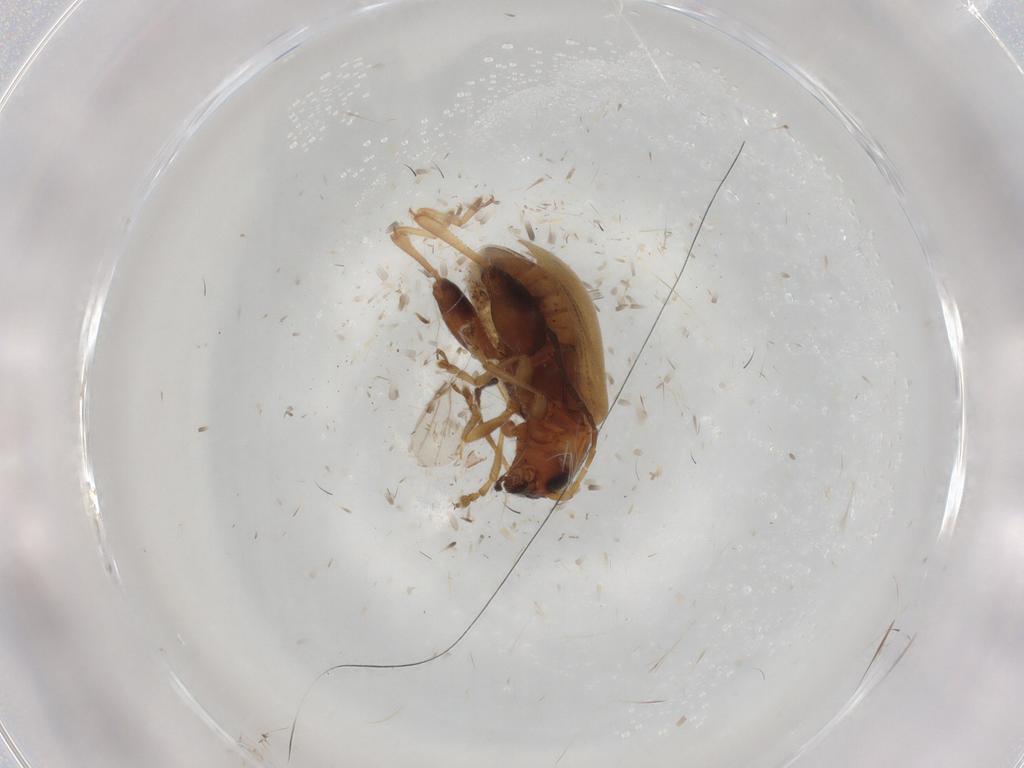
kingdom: Animalia
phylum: Arthropoda
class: Insecta
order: Coleoptera
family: Chrysomelidae
